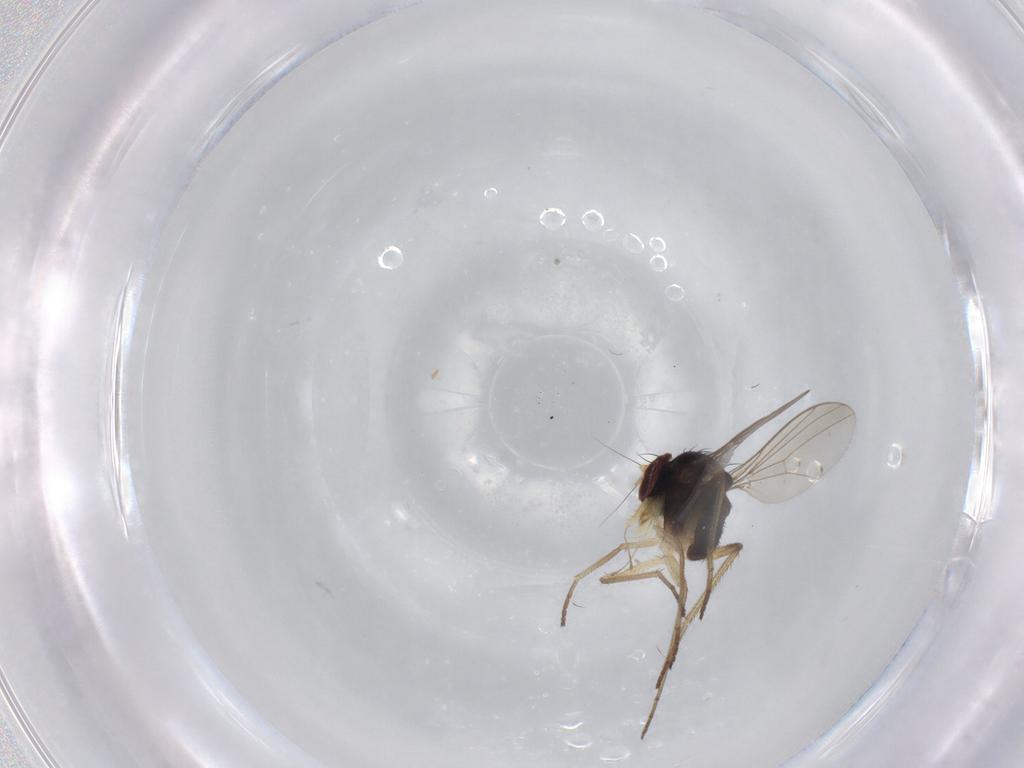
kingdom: Animalia
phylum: Arthropoda
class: Insecta
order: Diptera
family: Dolichopodidae
